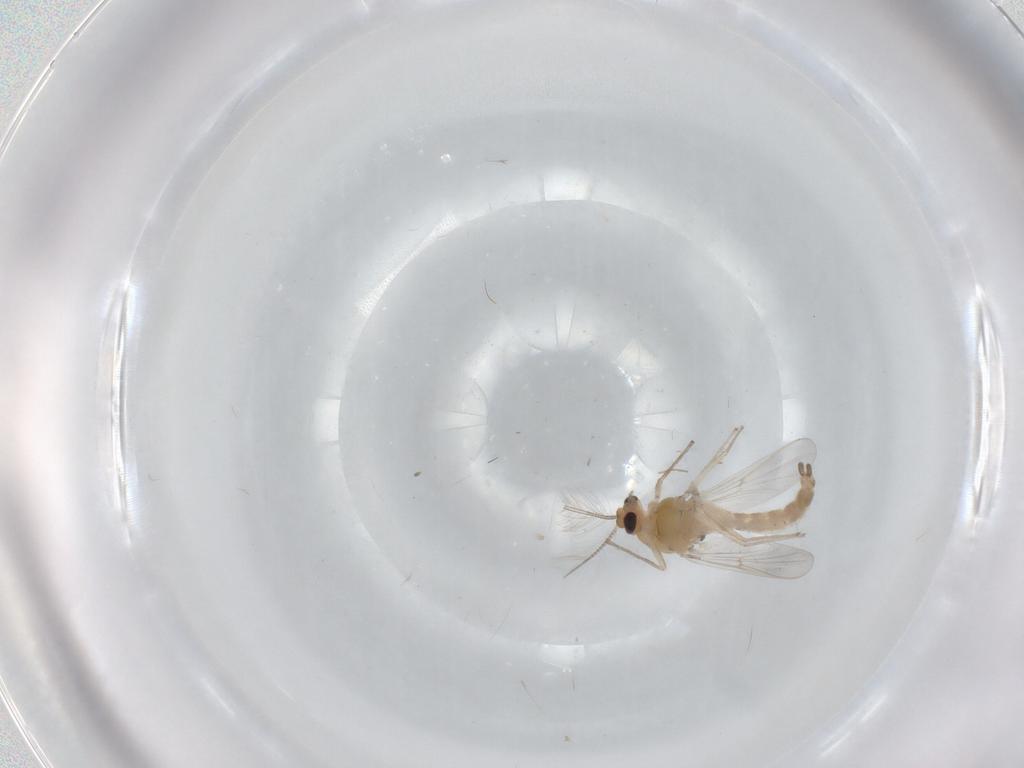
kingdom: Animalia
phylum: Arthropoda
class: Insecta
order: Diptera
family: Chironomidae
